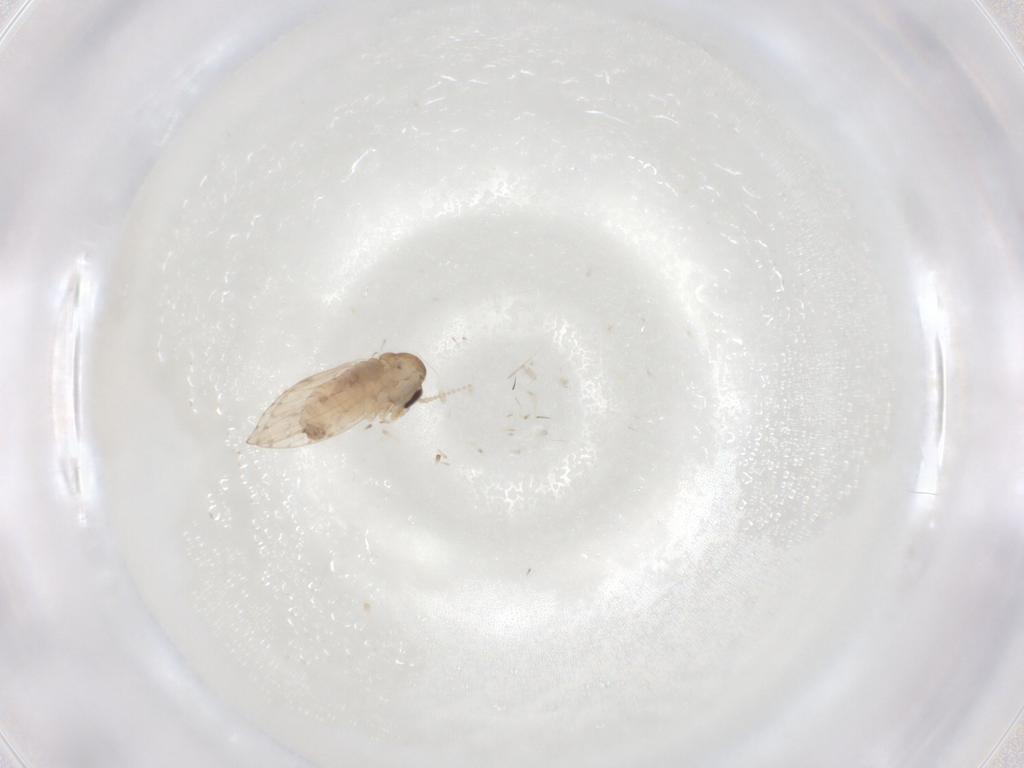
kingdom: Animalia
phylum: Arthropoda
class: Insecta
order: Diptera
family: Psychodidae
